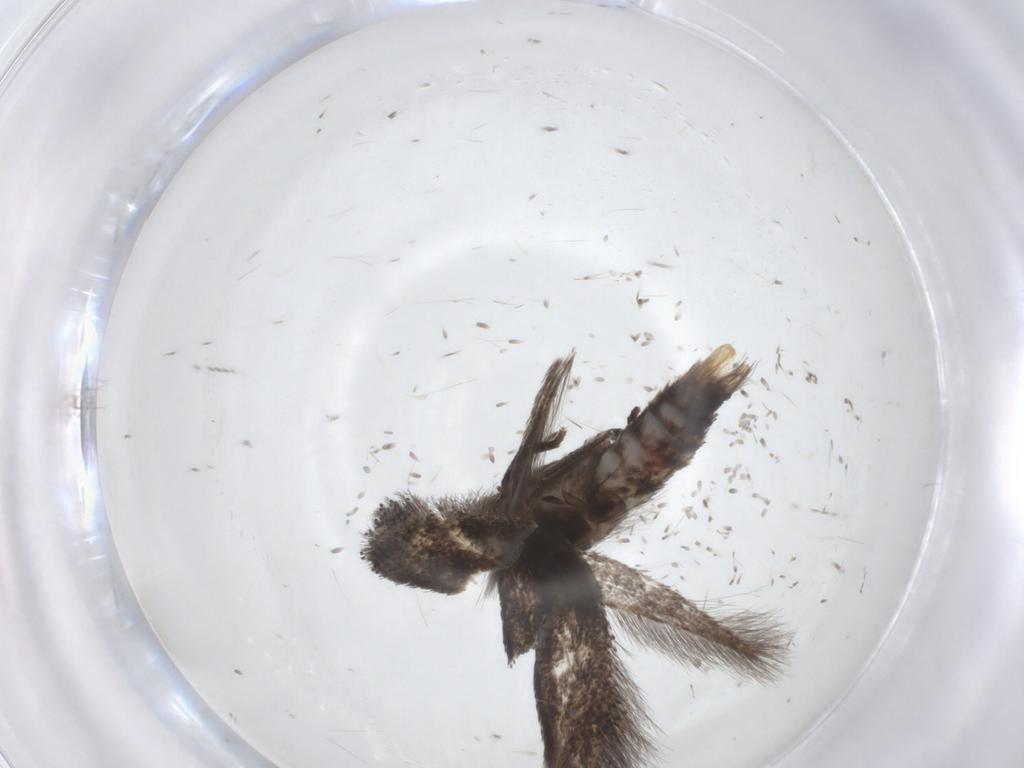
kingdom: Animalia
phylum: Arthropoda
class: Insecta
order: Lepidoptera
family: Elachistidae
